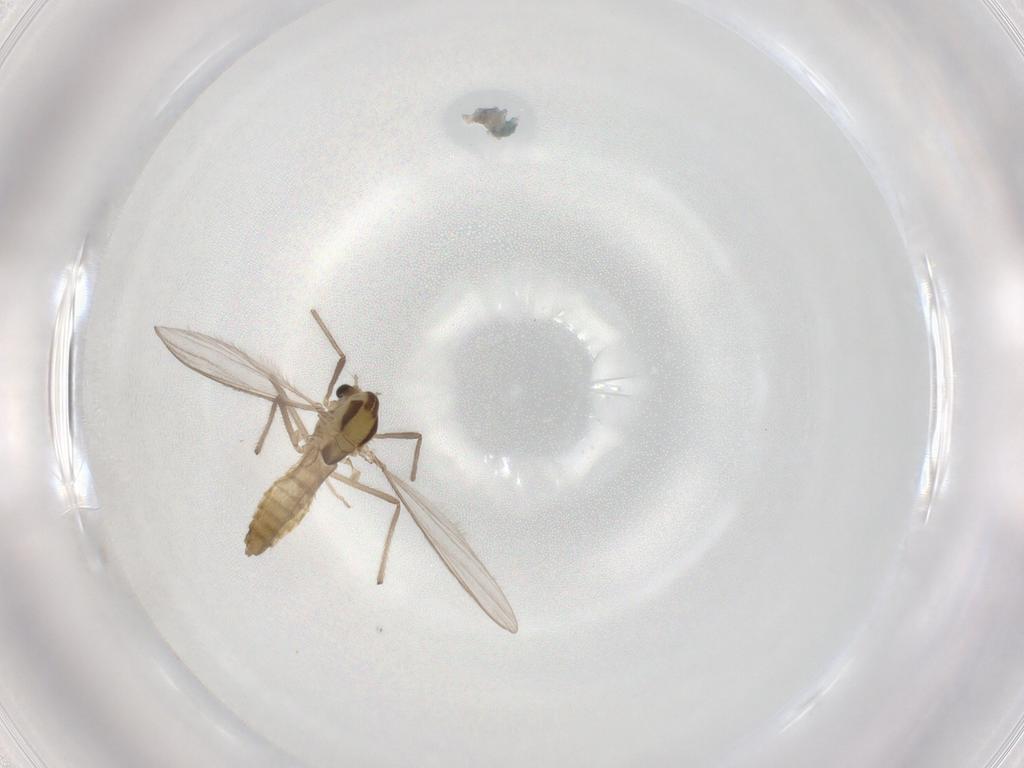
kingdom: Animalia
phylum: Arthropoda
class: Insecta
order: Diptera
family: Chironomidae
